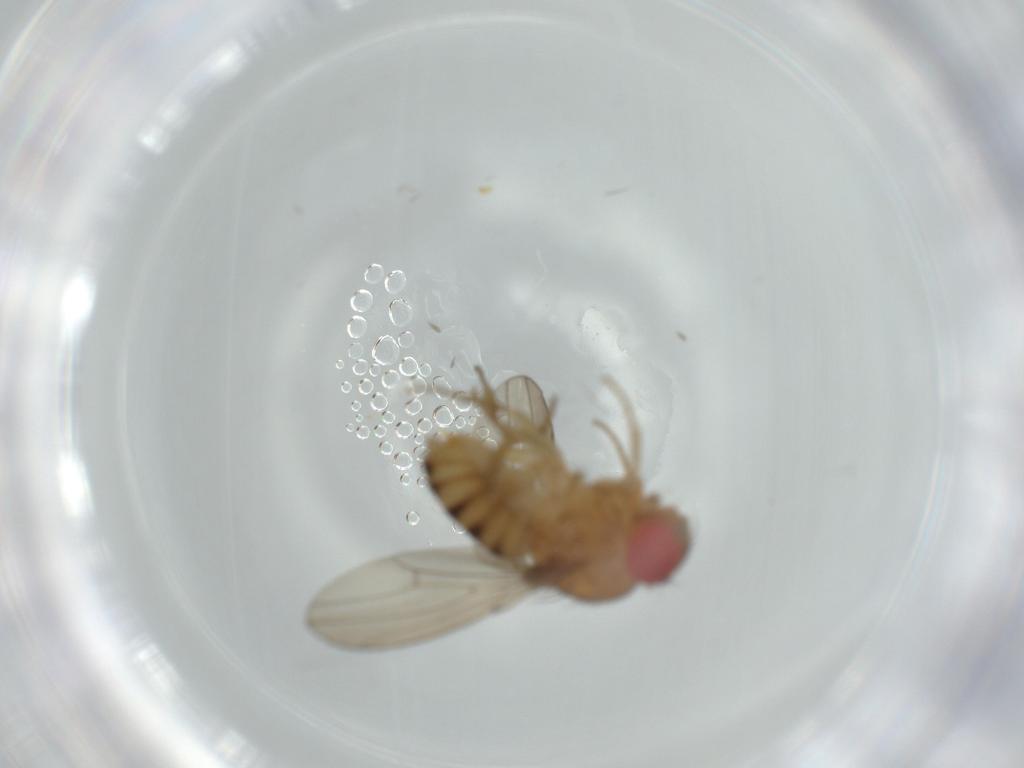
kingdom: Animalia
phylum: Arthropoda
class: Insecta
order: Diptera
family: Drosophilidae
